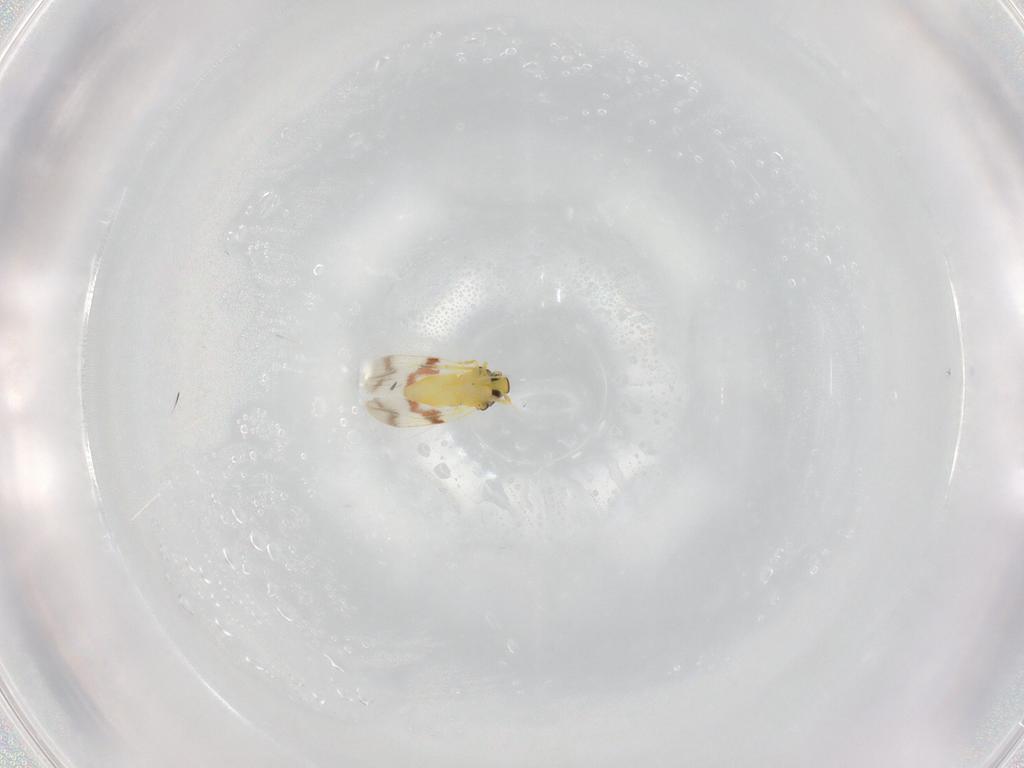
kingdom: Animalia
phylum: Arthropoda
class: Insecta
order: Hemiptera
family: Aleyrodidae
